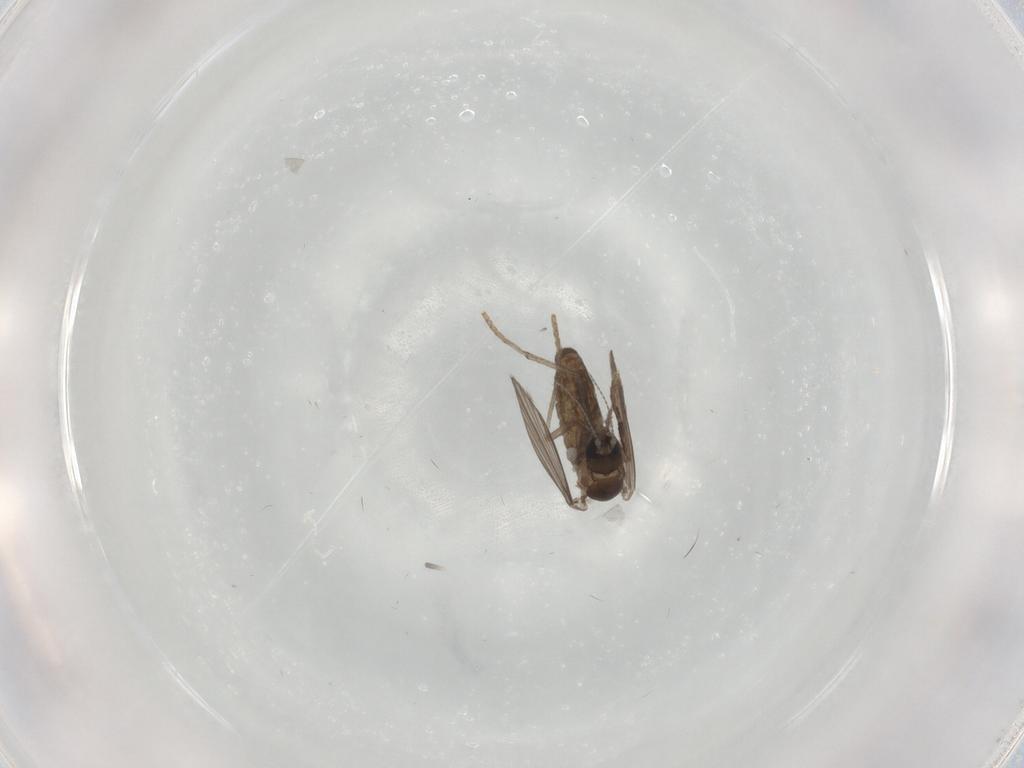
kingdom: Animalia
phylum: Arthropoda
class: Insecta
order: Diptera
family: Psychodidae
